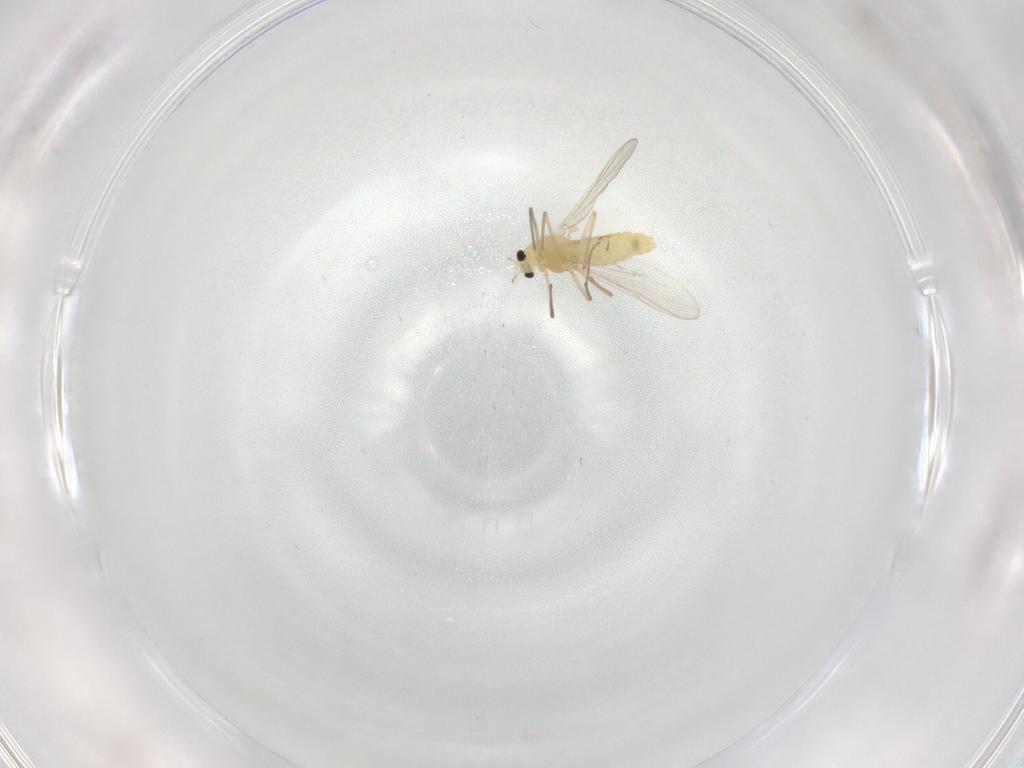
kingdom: Animalia
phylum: Arthropoda
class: Insecta
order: Diptera
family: Chironomidae
